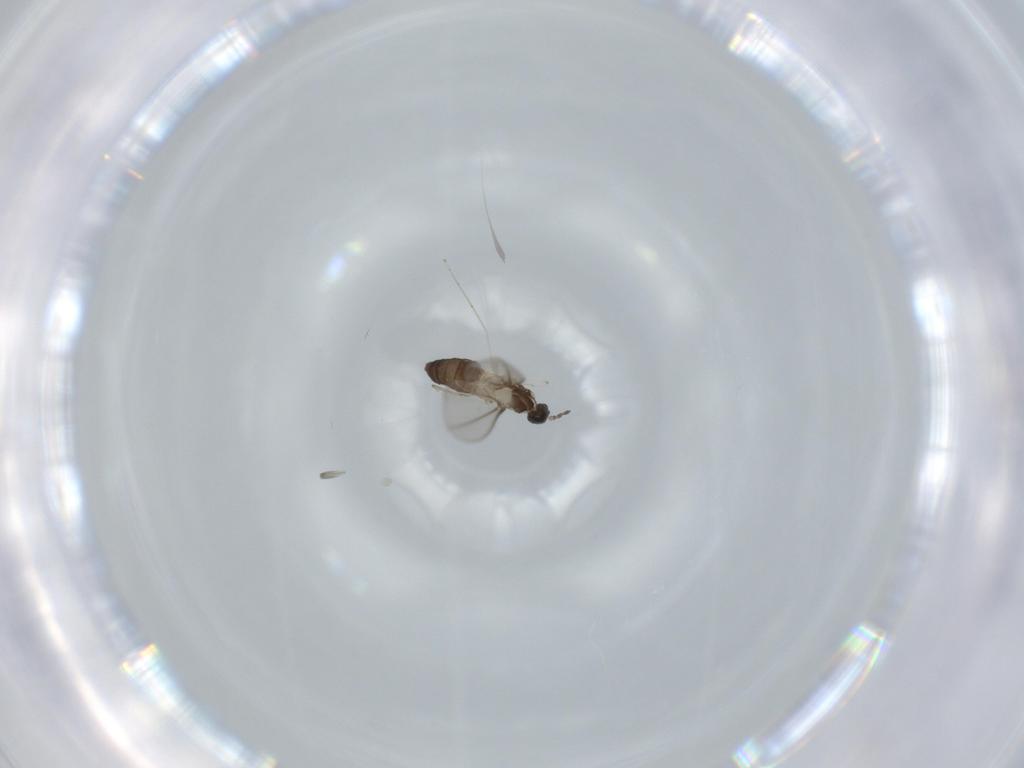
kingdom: Animalia
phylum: Arthropoda
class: Insecta
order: Diptera
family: Cecidomyiidae
